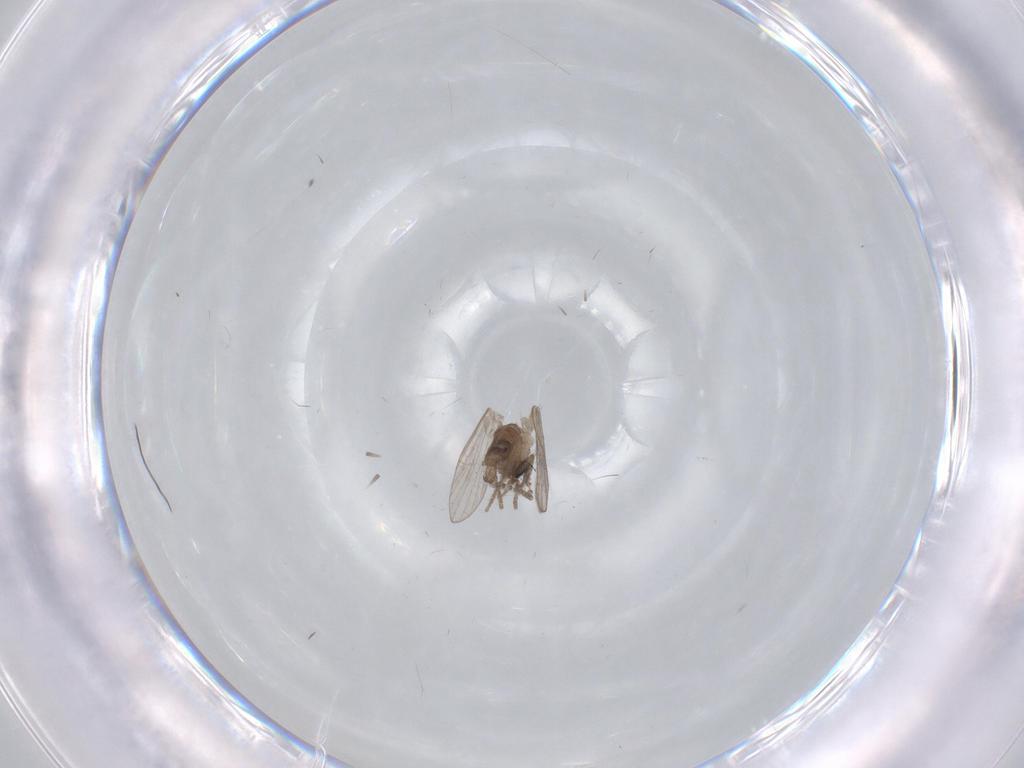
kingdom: Animalia
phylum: Arthropoda
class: Insecta
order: Diptera
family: Psychodidae
